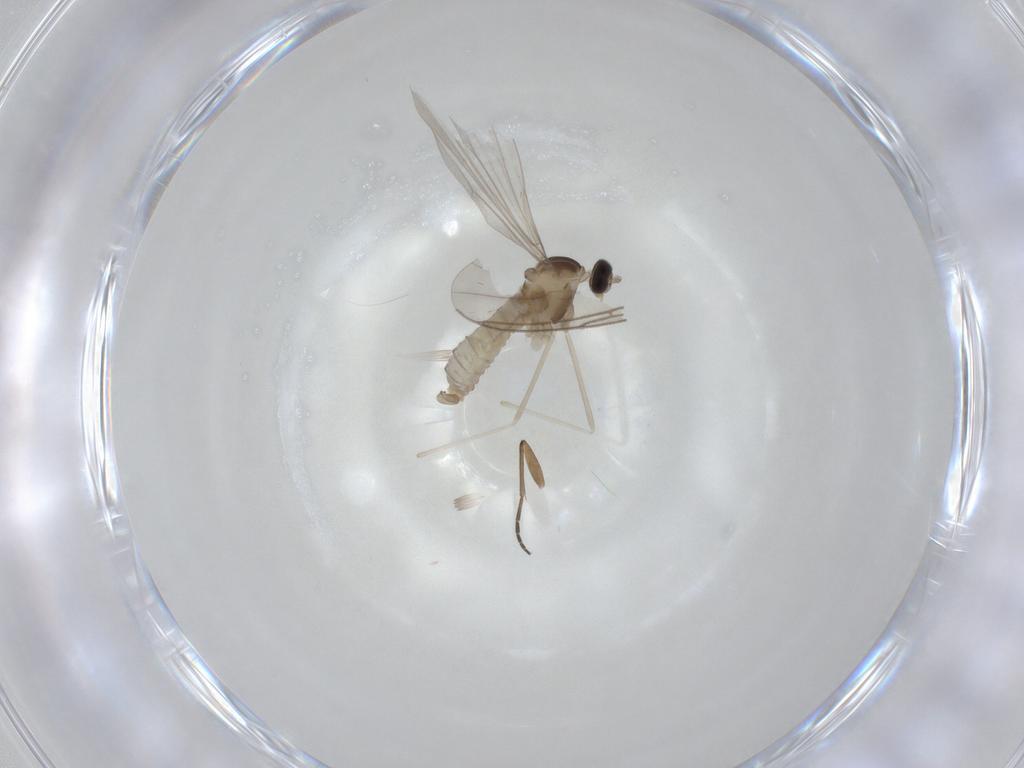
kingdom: Animalia
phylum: Arthropoda
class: Insecta
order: Diptera
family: Cecidomyiidae
